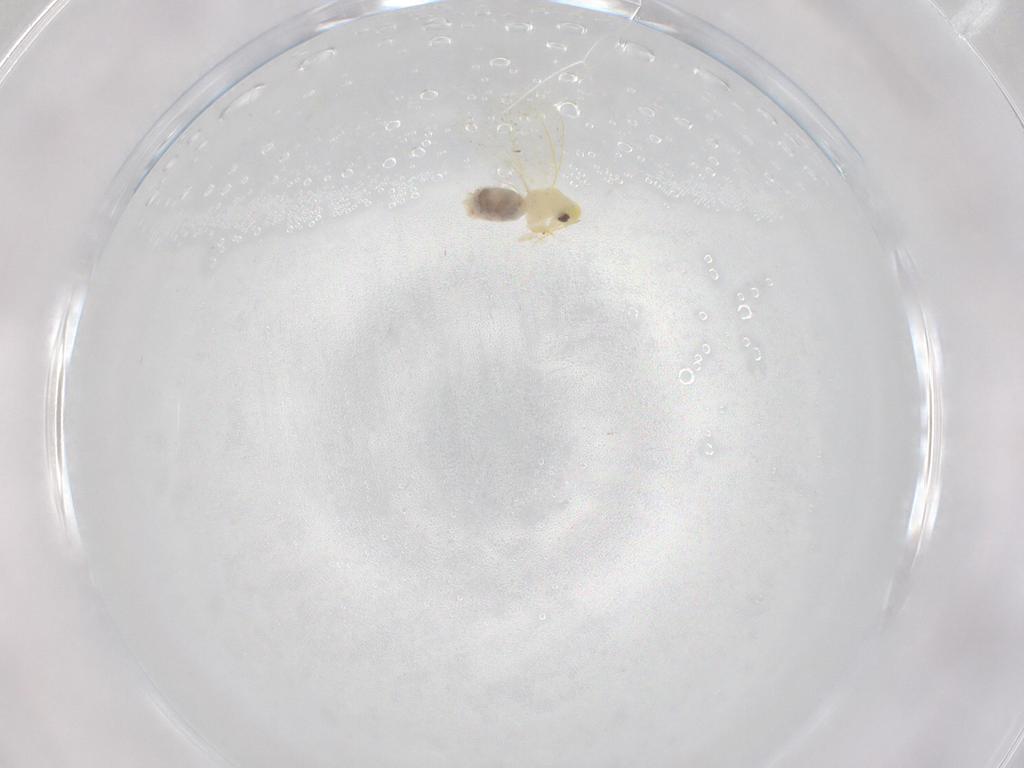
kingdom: Animalia
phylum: Arthropoda
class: Insecta
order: Hemiptera
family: Aleyrodidae
